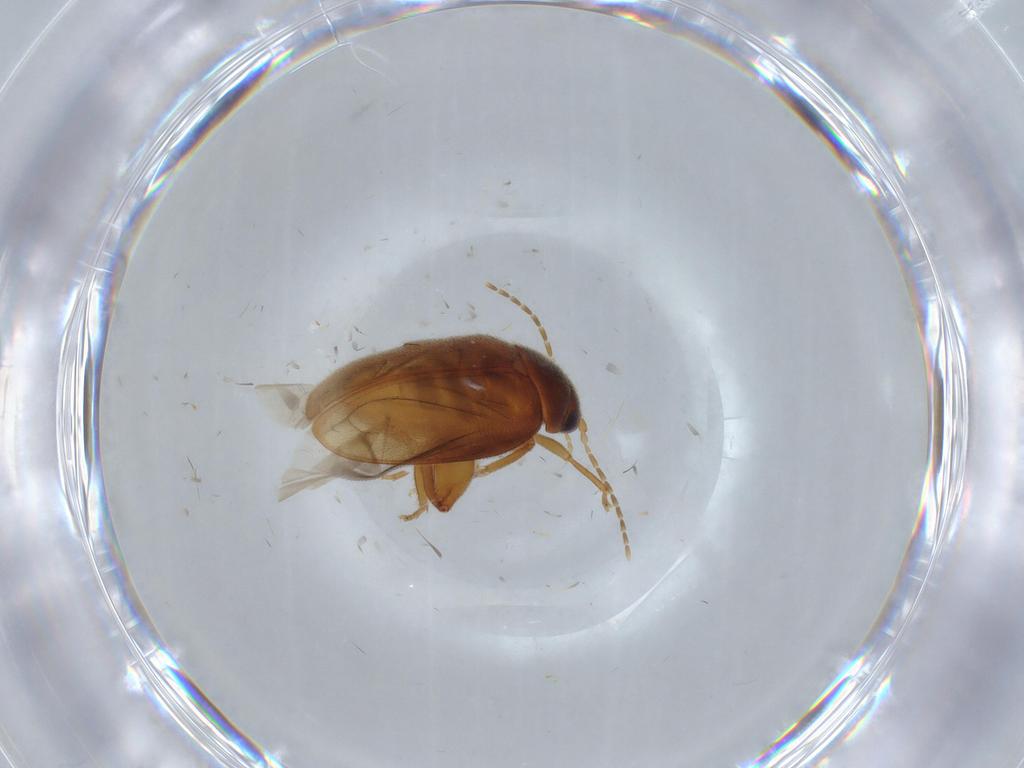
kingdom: Animalia
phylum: Arthropoda
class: Insecta
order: Coleoptera
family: Scirtidae
